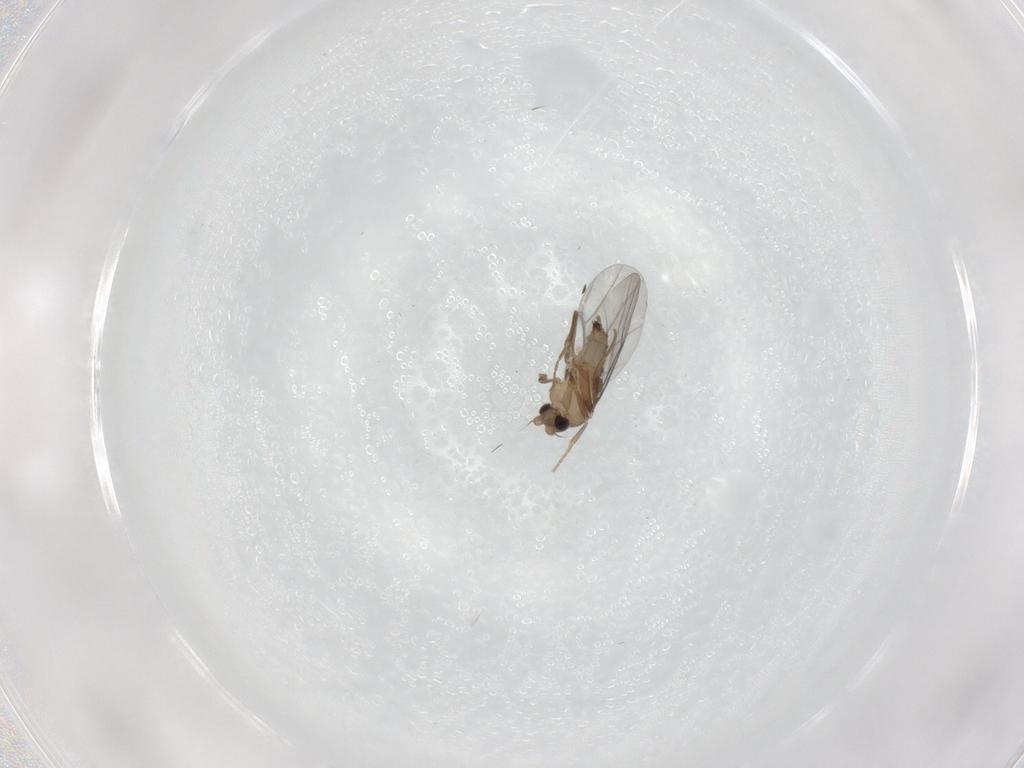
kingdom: Animalia
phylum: Arthropoda
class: Insecta
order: Diptera
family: Tabanidae
